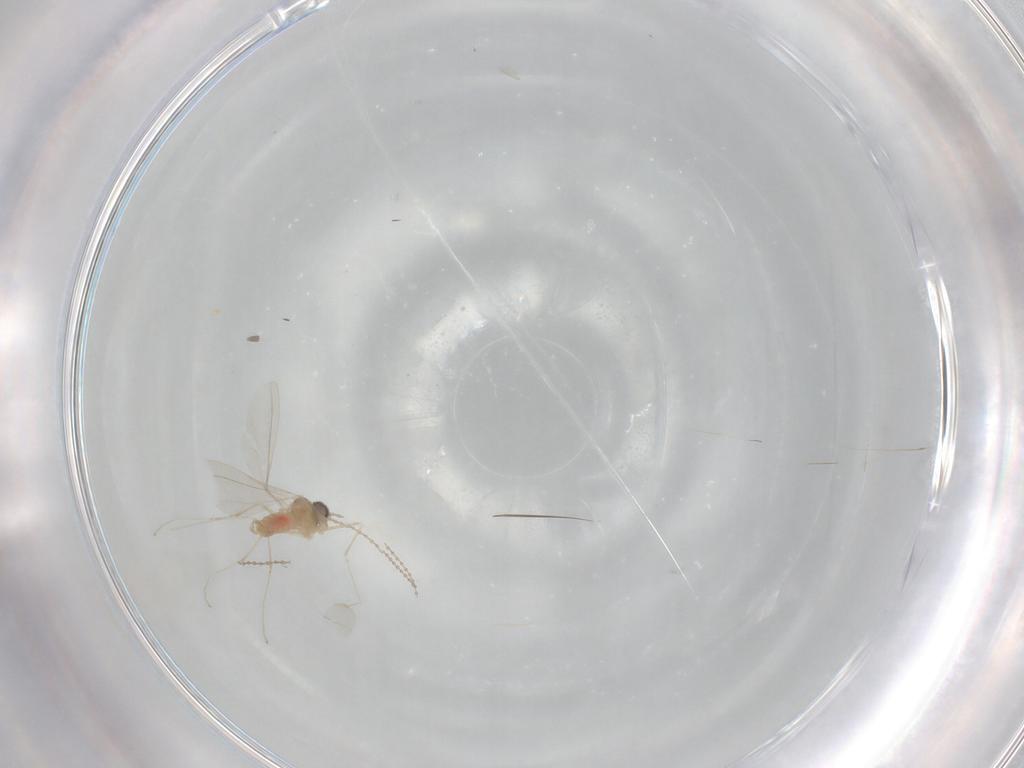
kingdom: Animalia
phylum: Arthropoda
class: Insecta
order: Diptera
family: Cecidomyiidae
